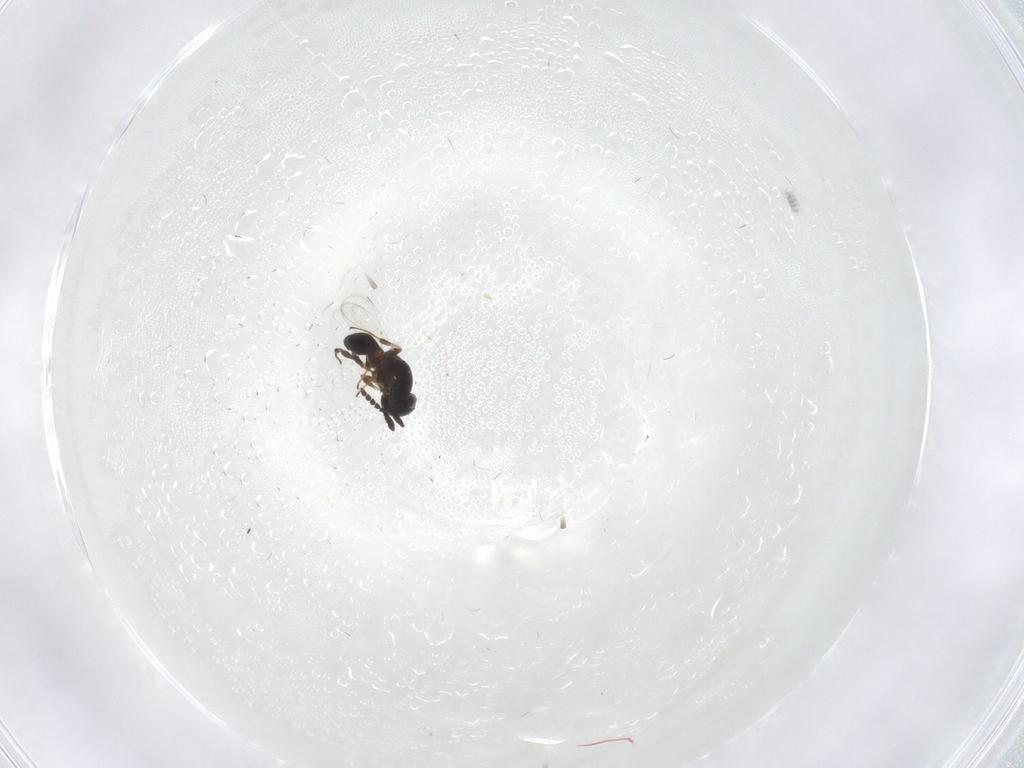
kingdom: Animalia
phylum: Arthropoda
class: Insecta
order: Hymenoptera
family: Platygastridae
